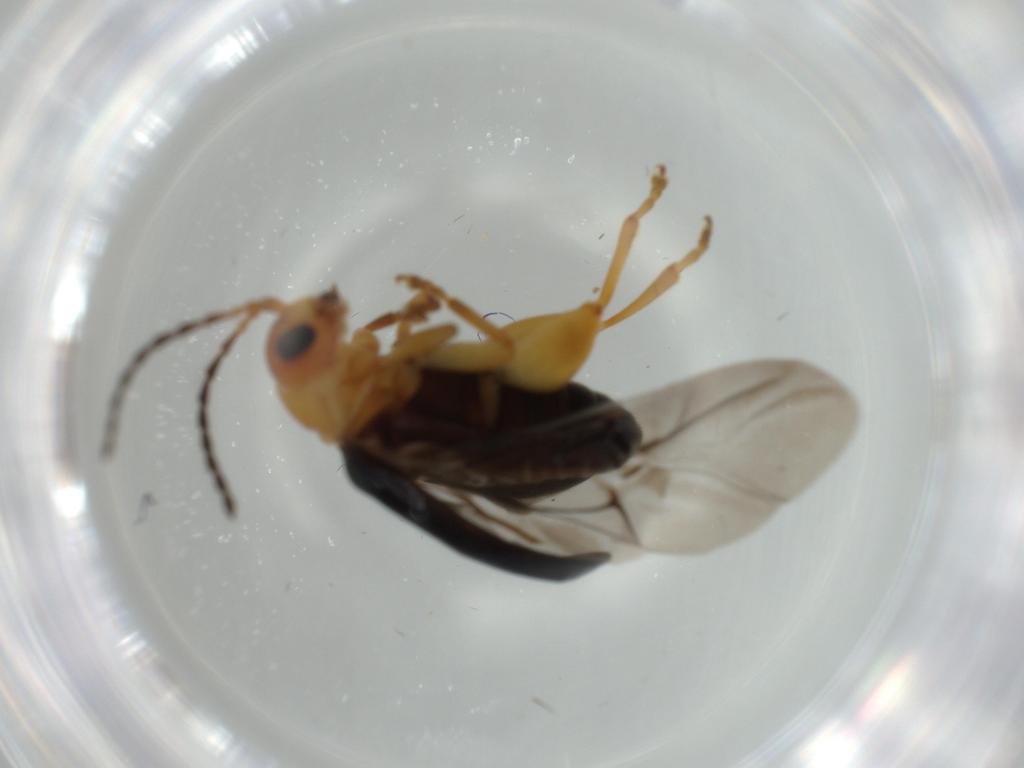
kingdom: Animalia
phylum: Arthropoda
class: Insecta
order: Coleoptera
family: Chrysomelidae
